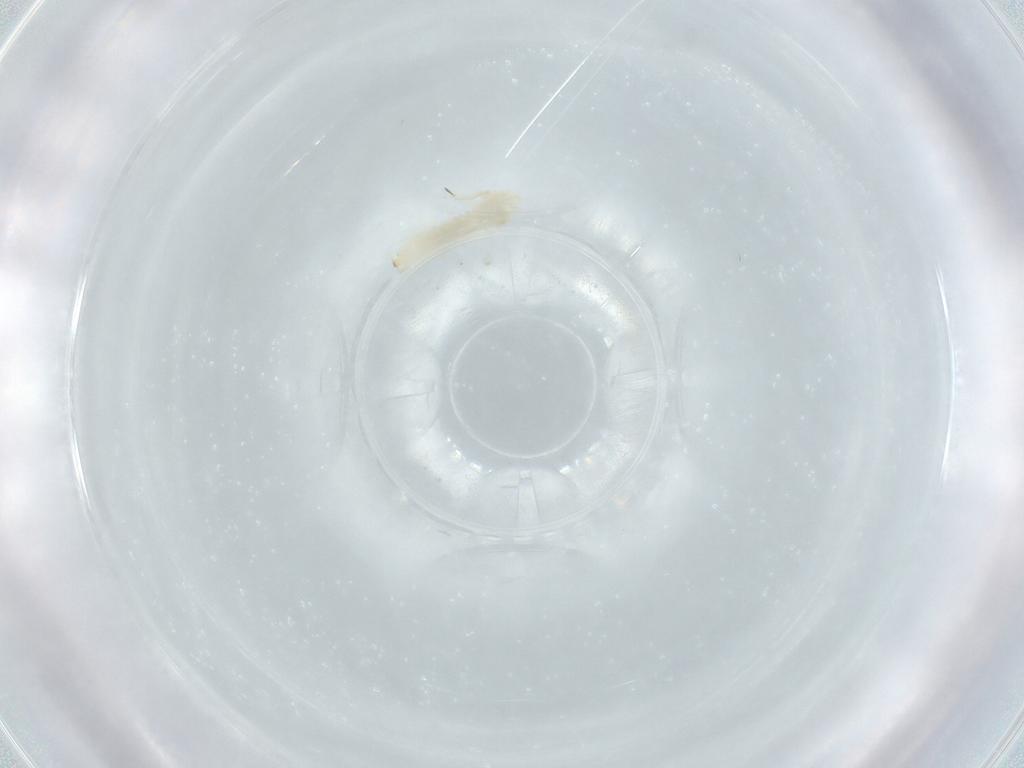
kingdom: Animalia
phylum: Arthropoda
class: Insecta
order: Diptera
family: Cecidomyiidae
